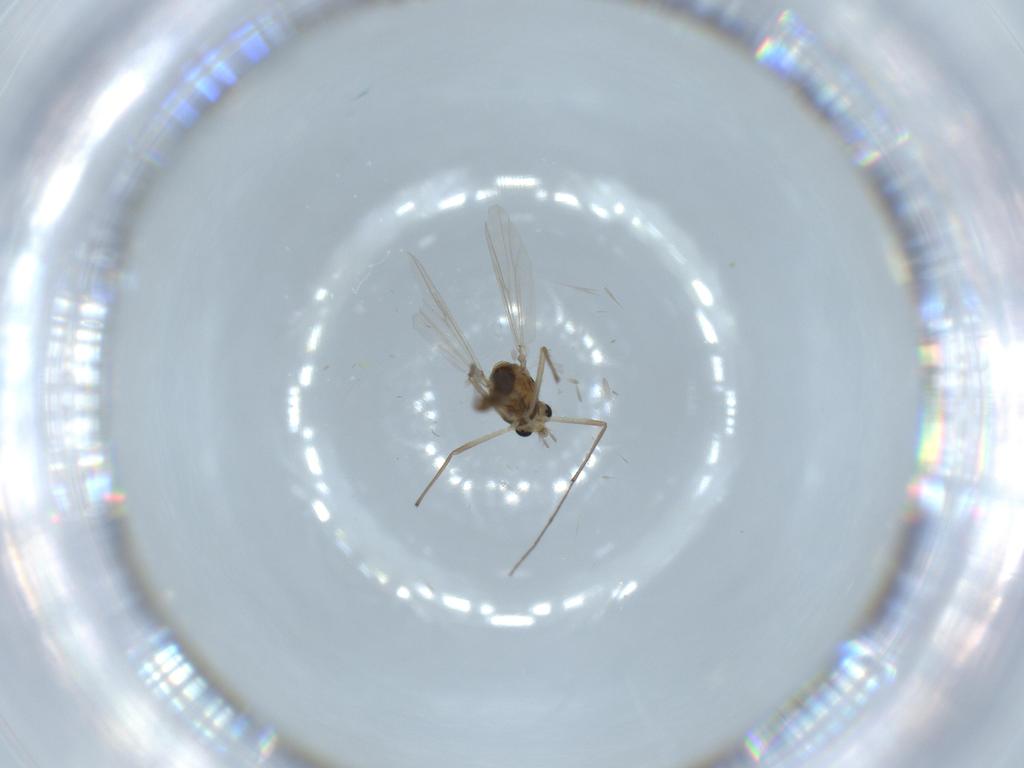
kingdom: Animalia
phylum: Arthropoda
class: Insecta
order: Diptera
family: Chironomidae
